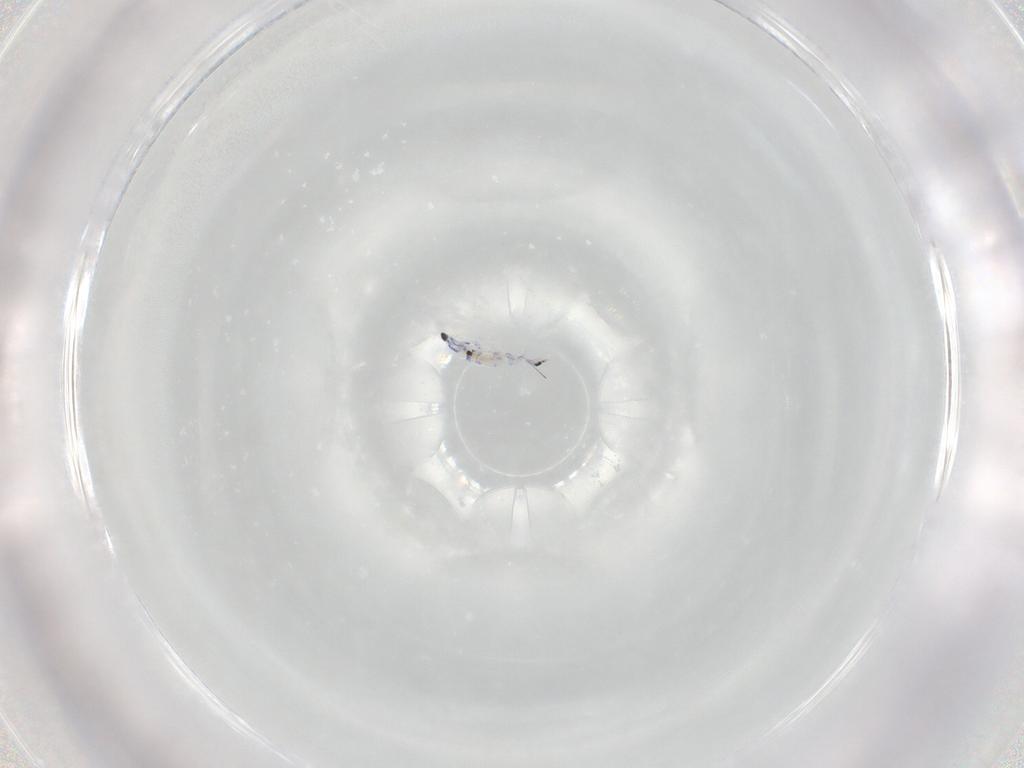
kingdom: Animalia
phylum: Arthropoda
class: Collembola
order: Entomobryomorpha
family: Entomobryidae
